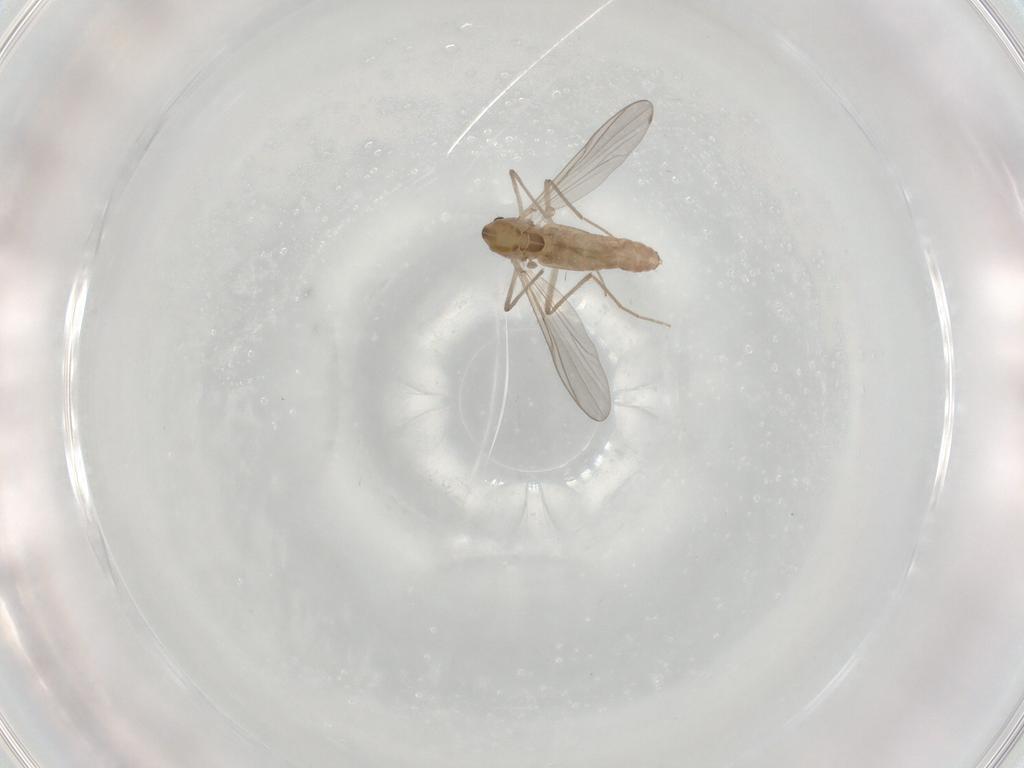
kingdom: Animalia
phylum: Arthropoda
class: Insecta
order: Diptera
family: Chironomidae
